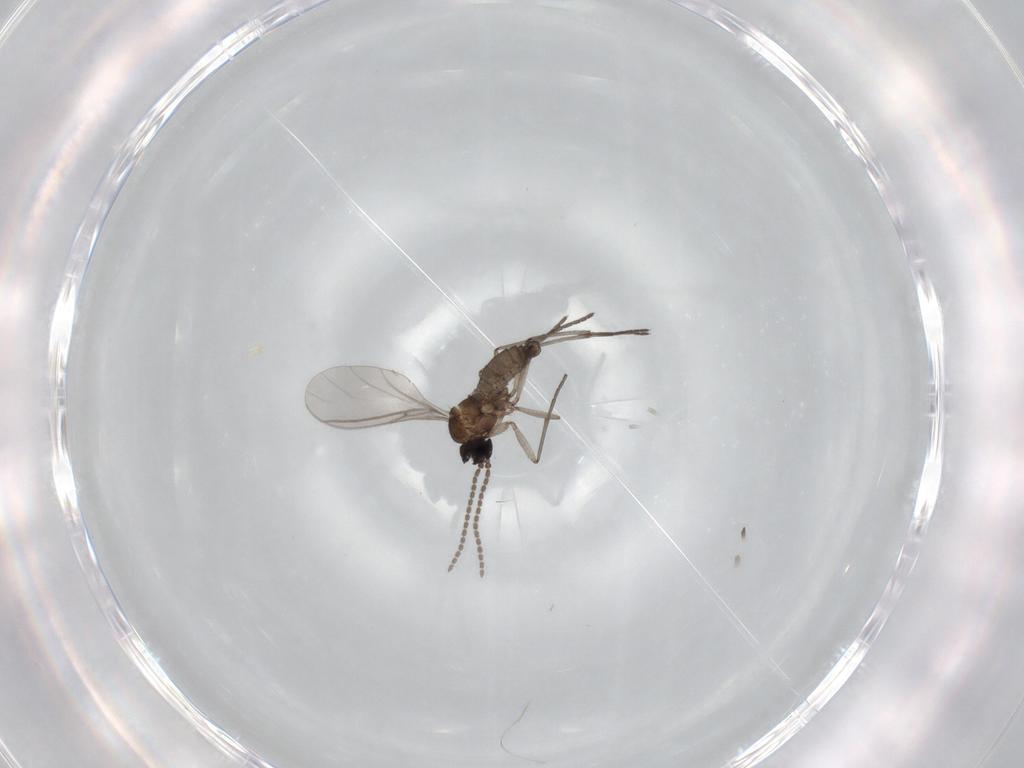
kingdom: Animalia
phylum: Arthropoda
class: Insecta
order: Diptera
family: Sciaridae
